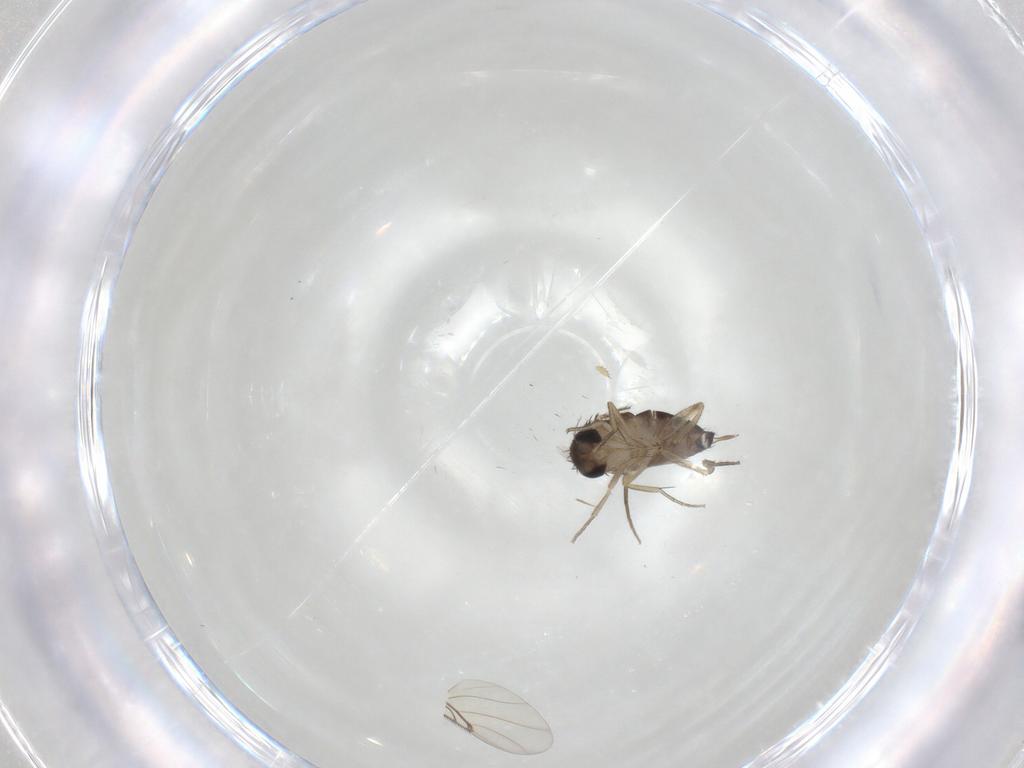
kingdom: Animalia
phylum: Arthropoda
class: Insecta
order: Diptera
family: Phoridae
